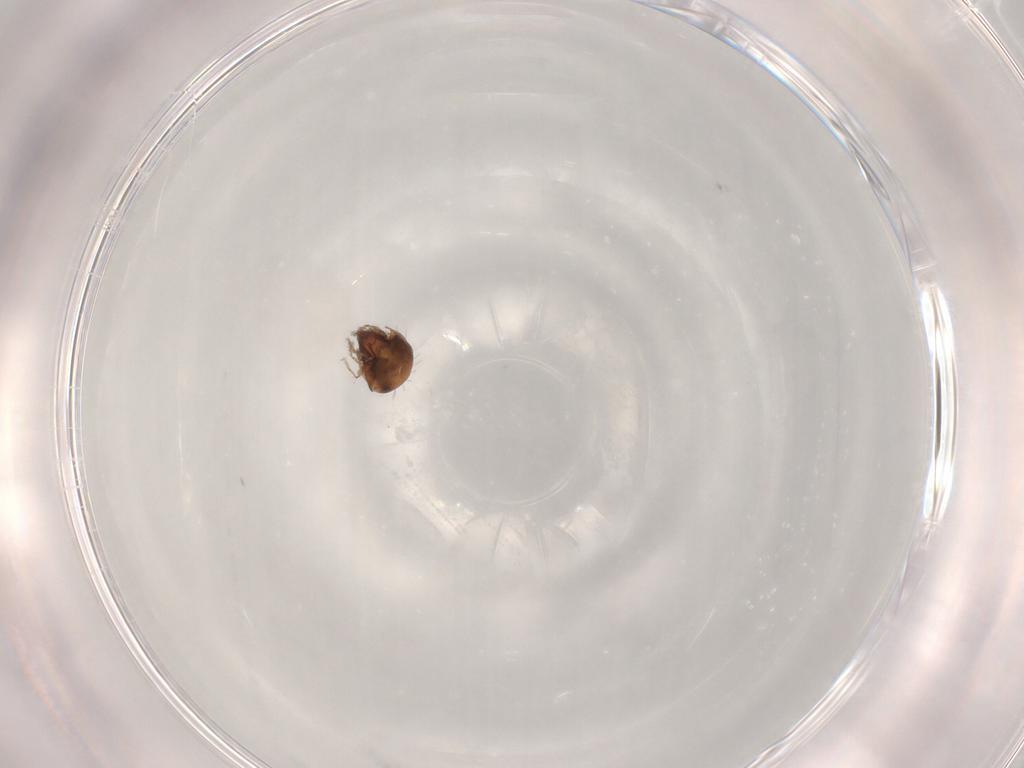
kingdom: Animalia
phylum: Arthropoda
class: Arachnida
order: Sarcoptiformes
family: Humerobatidae
